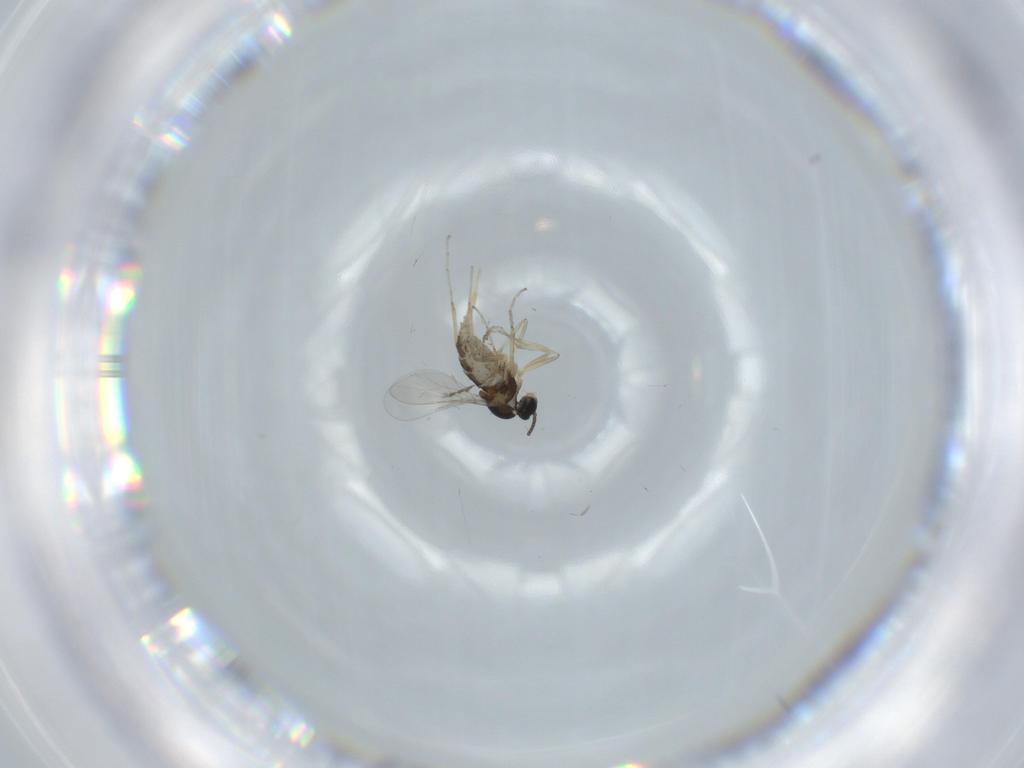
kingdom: Animalia
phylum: Arthropoda
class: Insecta
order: Diptera
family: Cecidomyiidae
